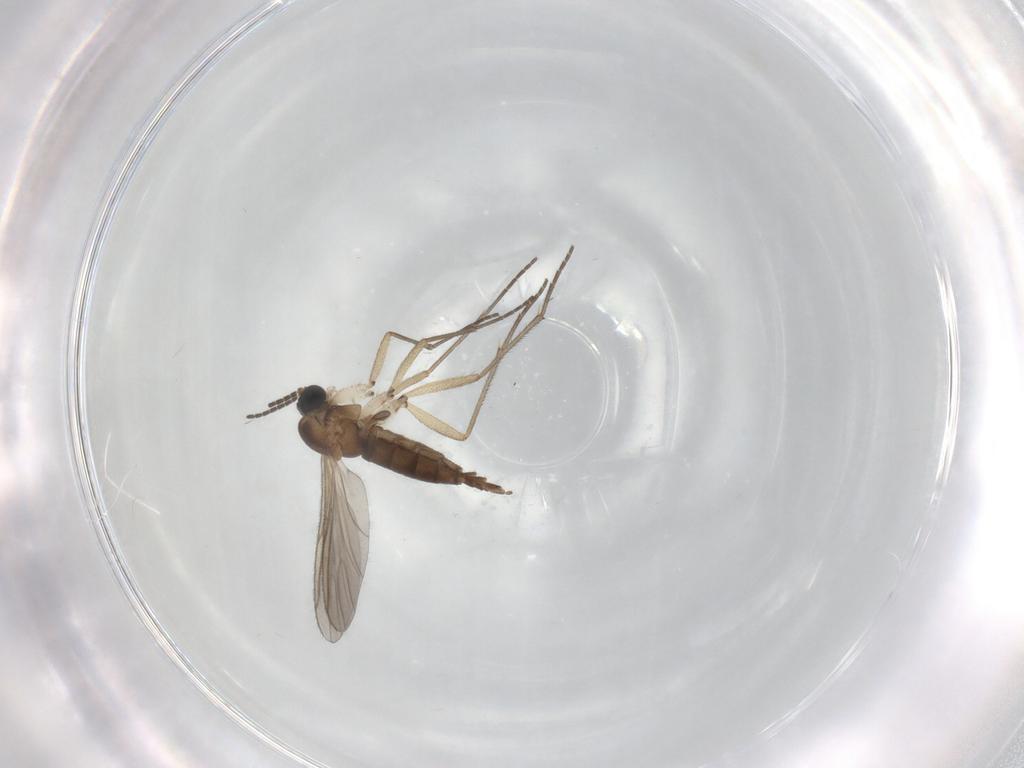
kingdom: Animalia
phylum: Arthropoda
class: Insecta
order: Diptera
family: Sciaridae
